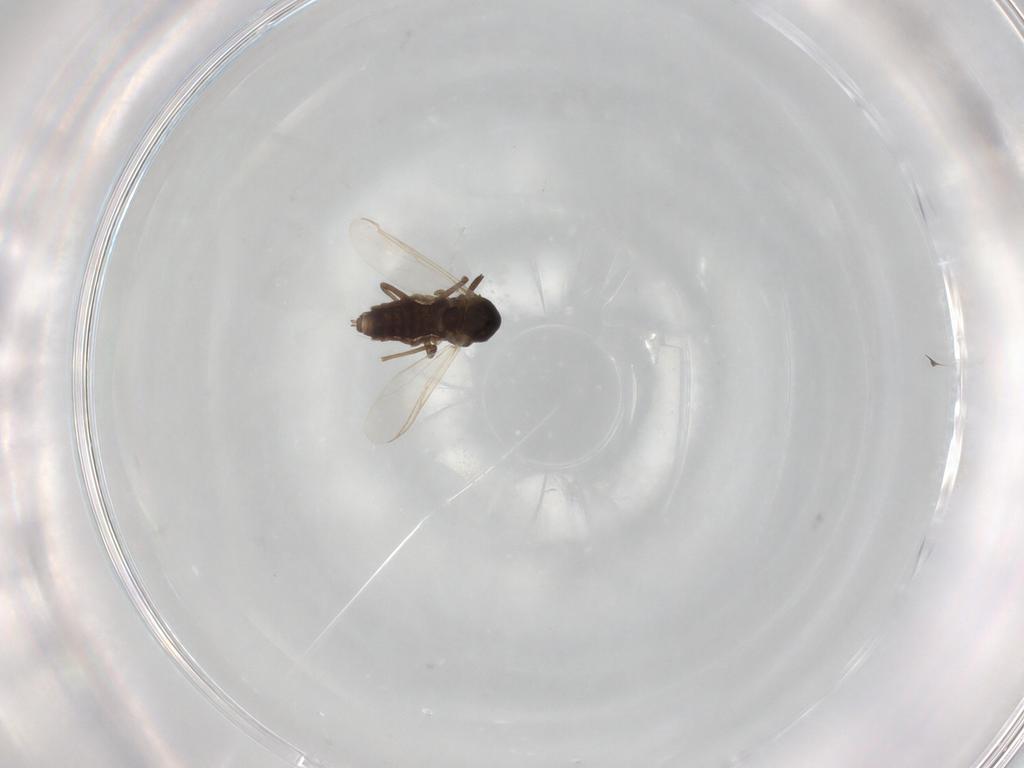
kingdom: Animalia
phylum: Arthropoda
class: Insecta
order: Diptera
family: Chironomidae
